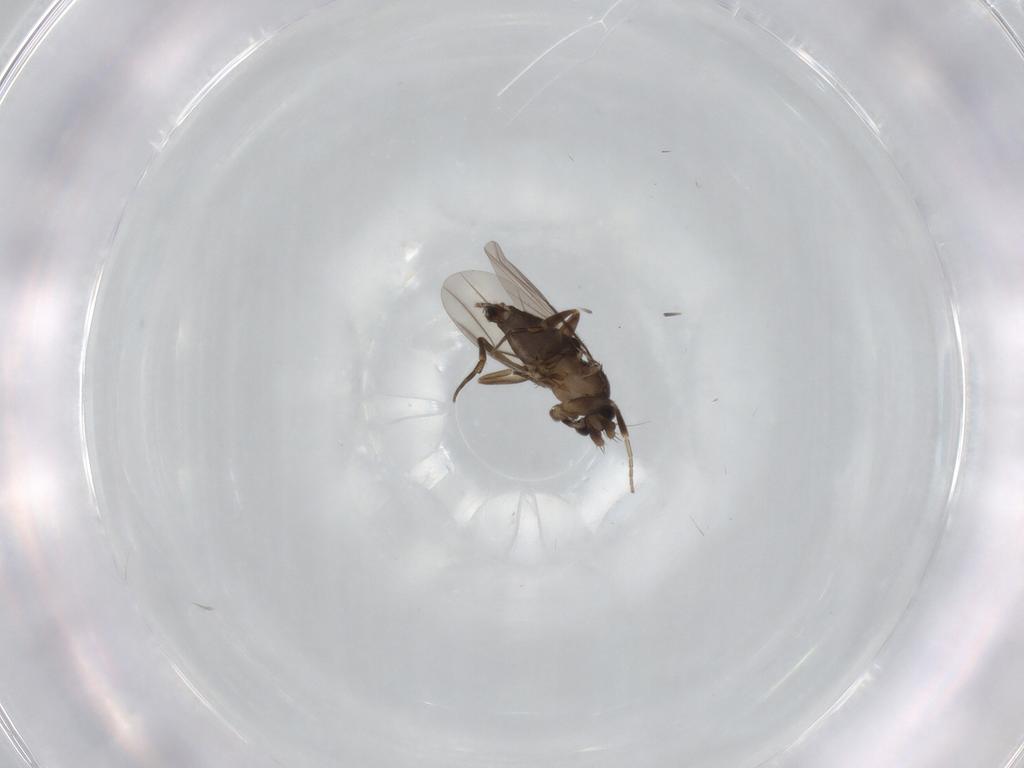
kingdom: Animalia
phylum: Arthropoda
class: Insecta
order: Diptera
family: Phoridae
